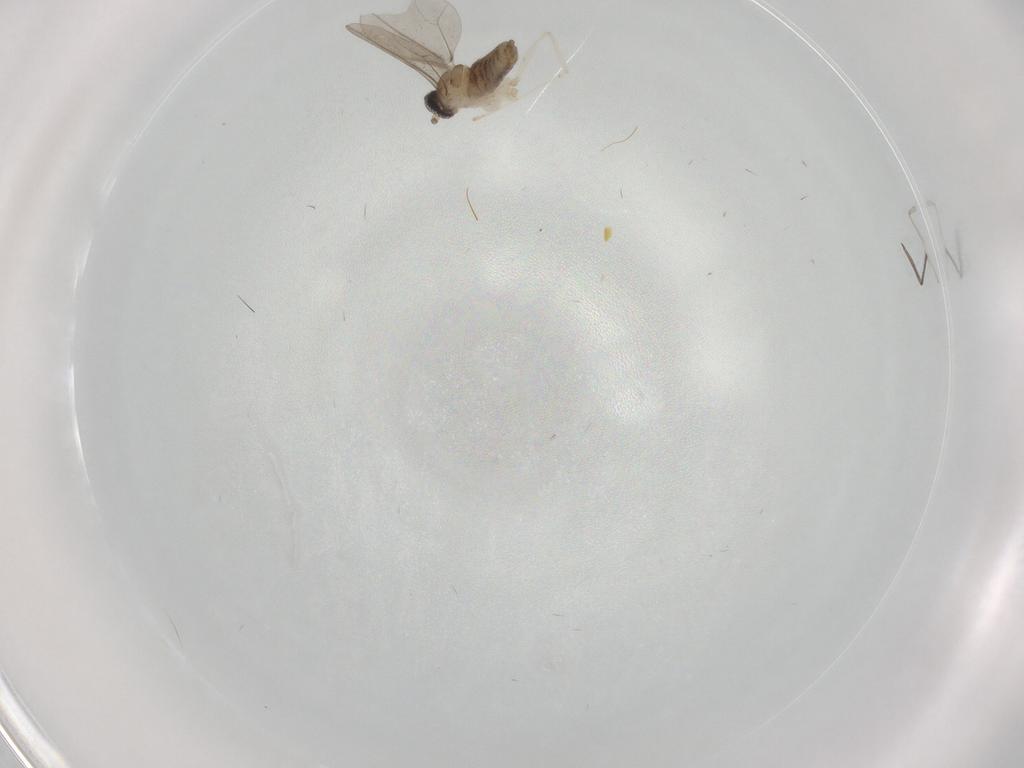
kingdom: Animalia
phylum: Arthropoda
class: Insecta
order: Diptera
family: Cecidomyiidae
